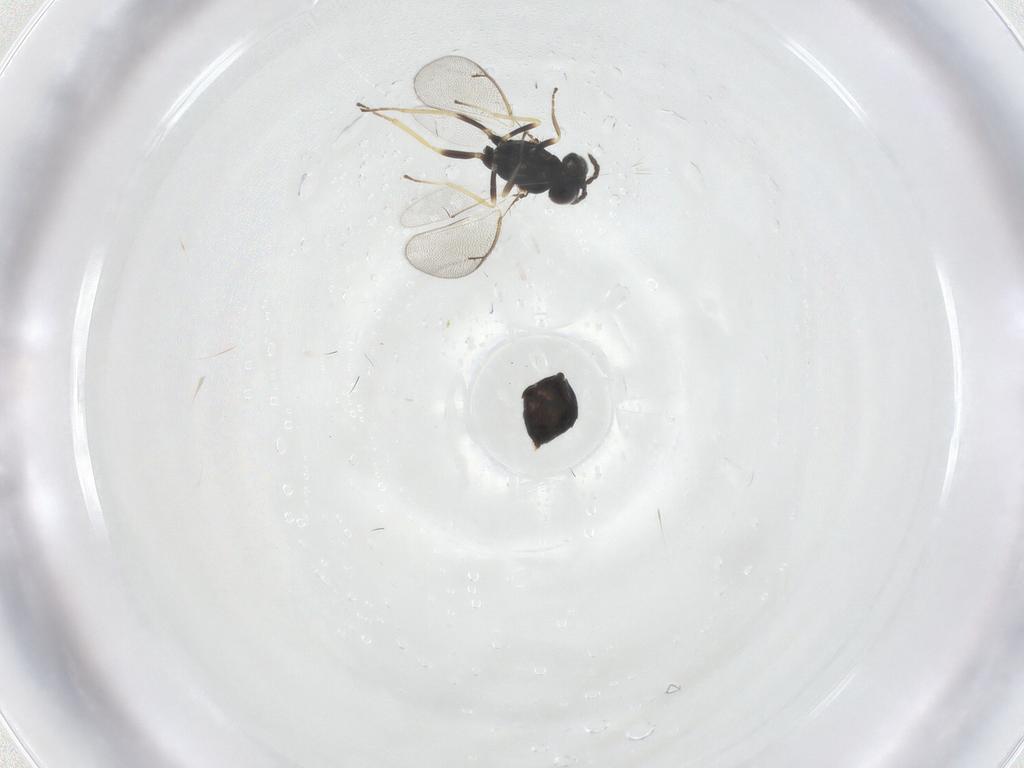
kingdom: Animalia
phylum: Arthropoda
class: Insecta
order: Hymenoptera
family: Eulophidae
